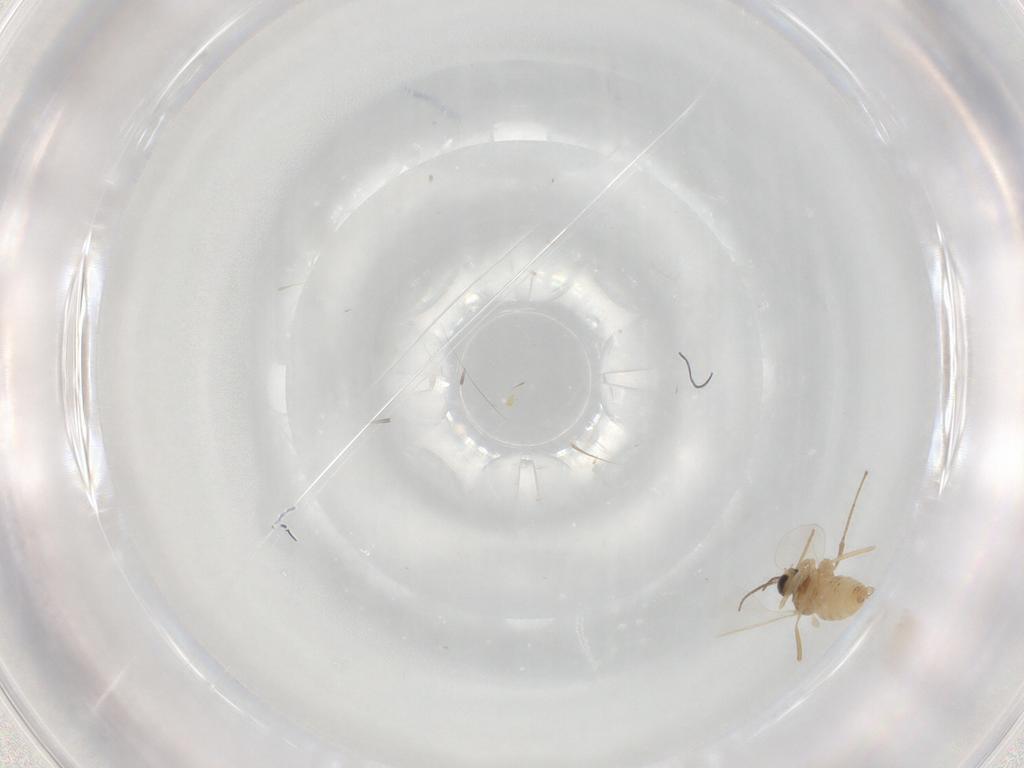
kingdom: Animalia
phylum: Arthropoda
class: Insecta
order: Diptera
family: Cecidomyiidae
